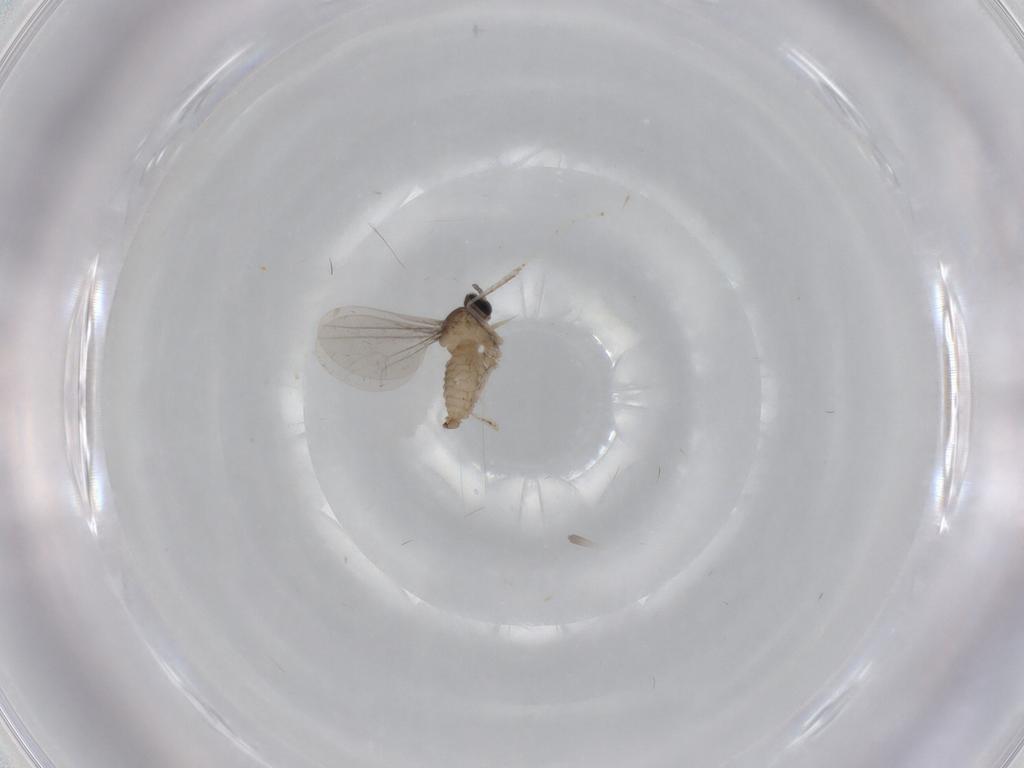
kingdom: Animalia
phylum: Arthropoda
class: Insecta
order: Diptera
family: Cecidomyiidae
